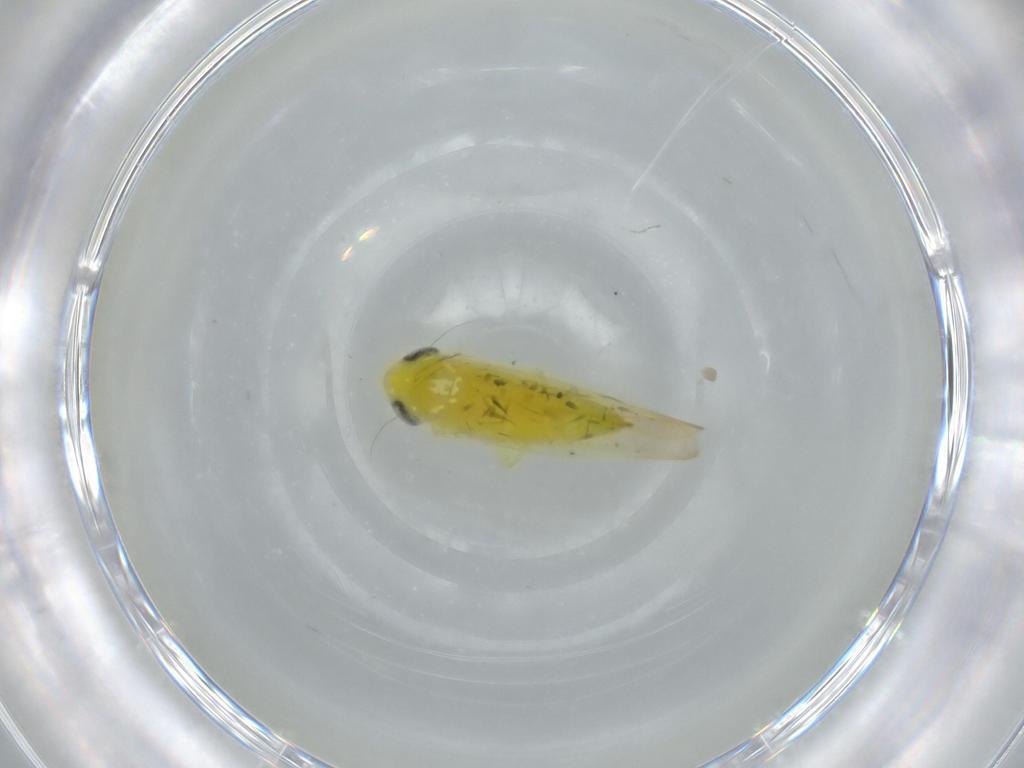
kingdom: Animalia
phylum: Arthropoda
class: Insecta
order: Hemiptera
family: Cicadellidae
